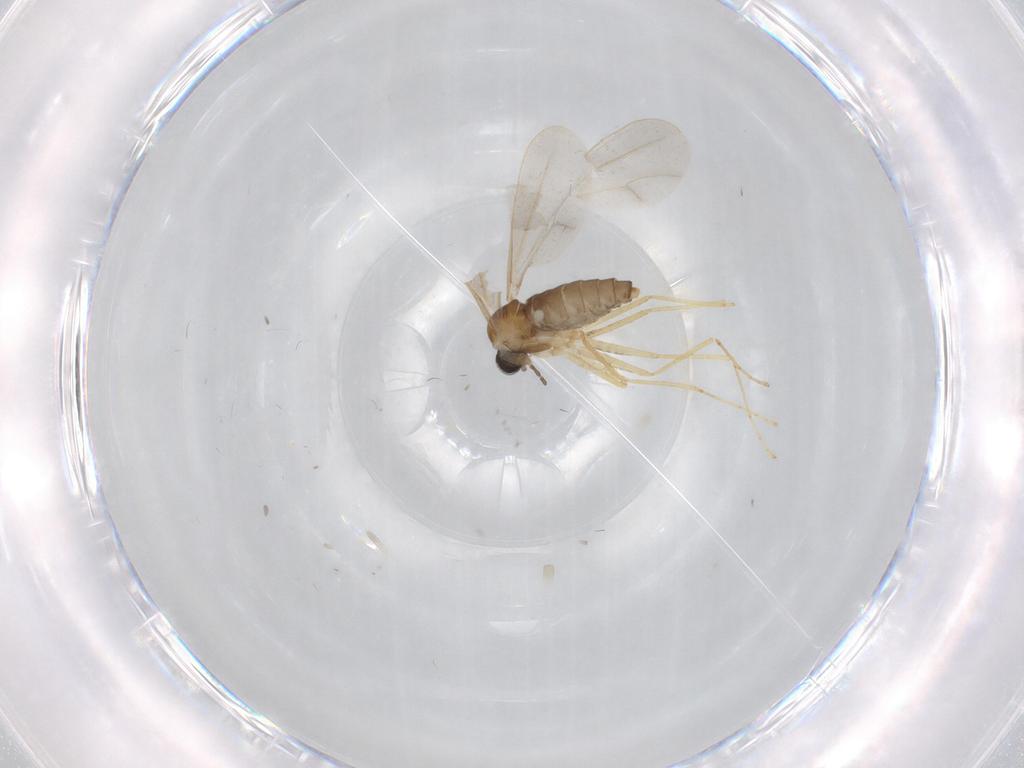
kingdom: Animalia
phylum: Arthropoda
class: Insecta
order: Diptera
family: Cecidomyiidae
